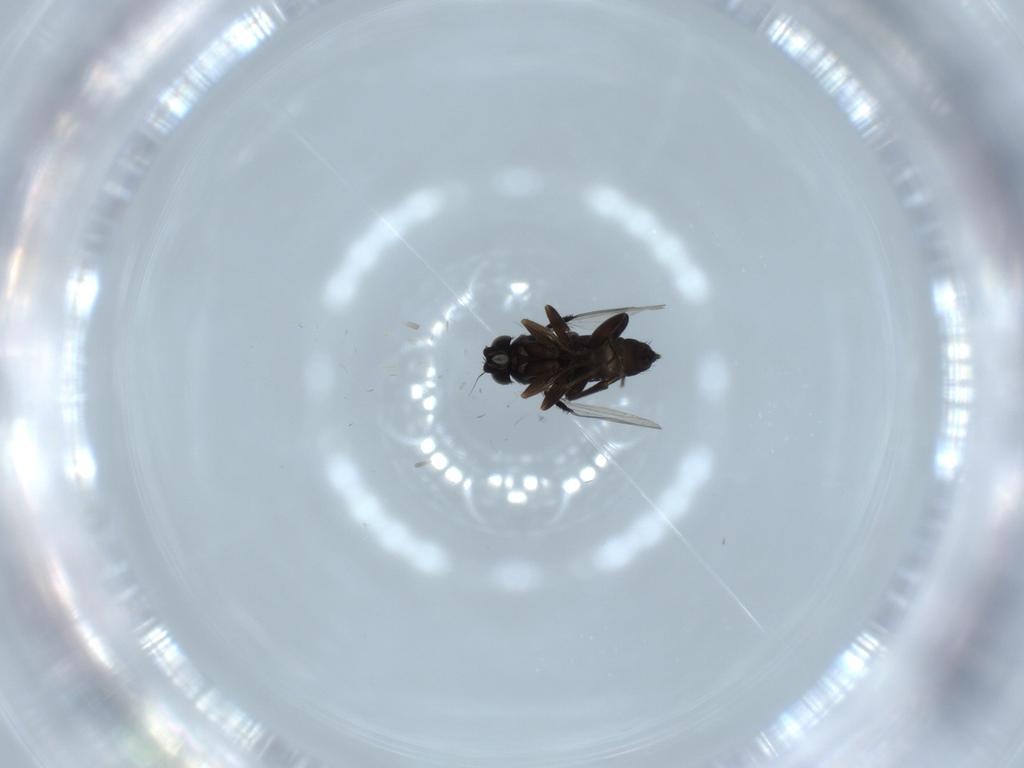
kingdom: Animalia
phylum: Arthropoda
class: Insecta
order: Diptera
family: Phoridae
